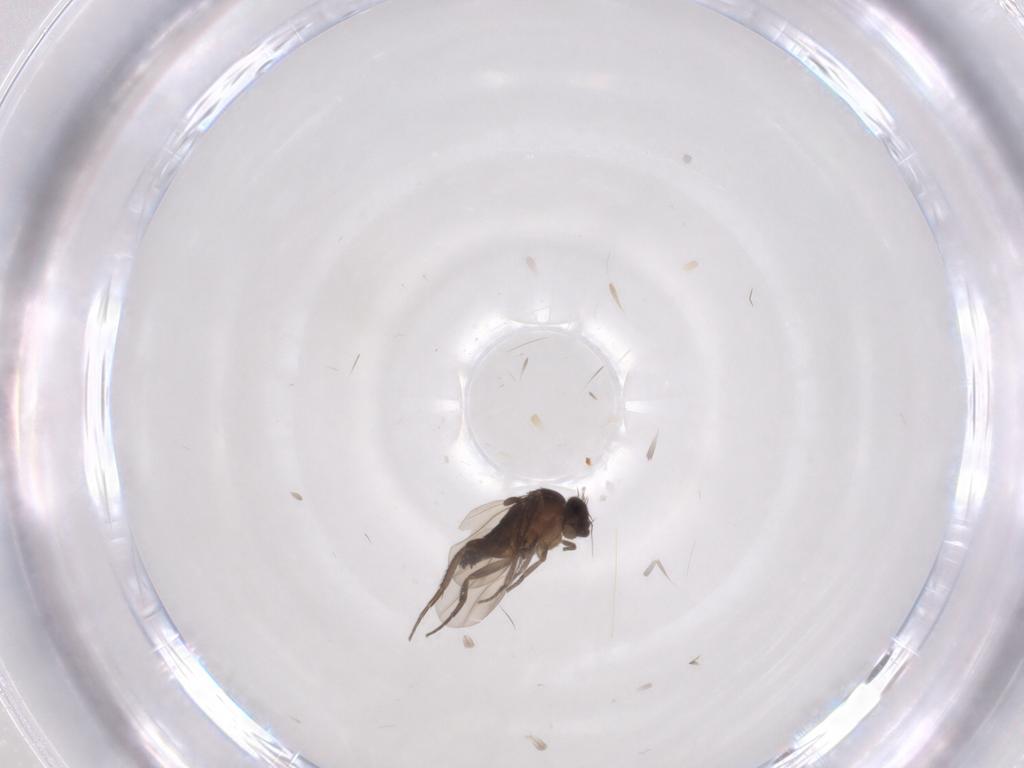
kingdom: Animalia
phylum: Arthropoda
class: Insecta
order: Diptera
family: Phoridae
